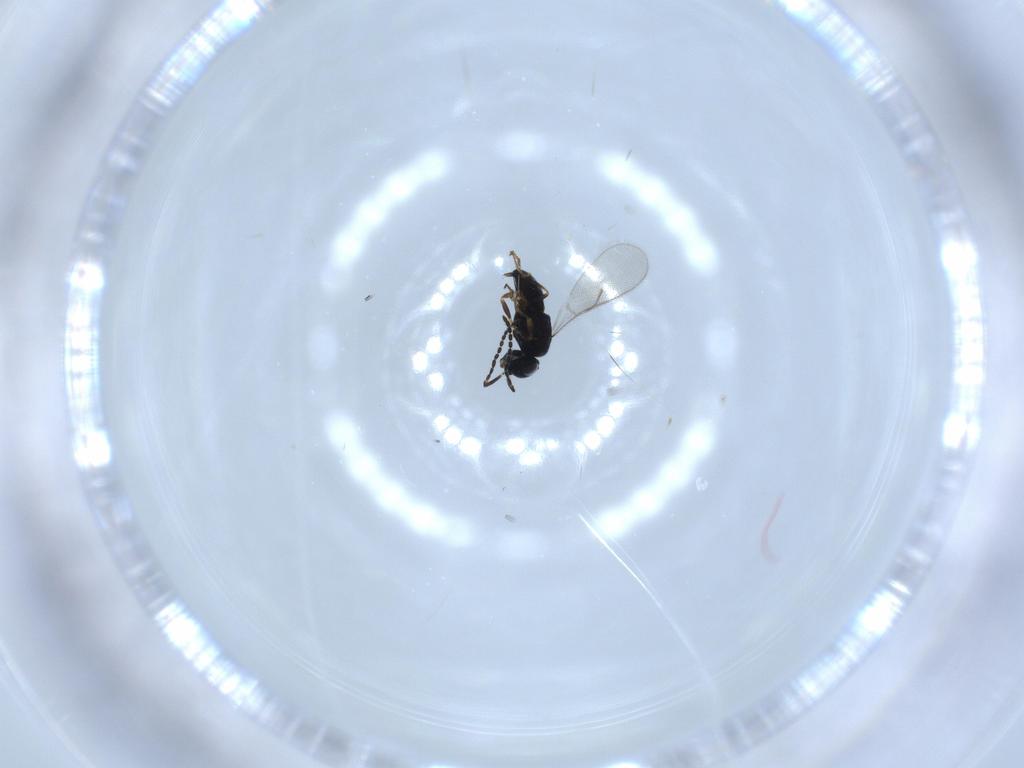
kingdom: Animalia
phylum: Arthropoda
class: Insecta
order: Hymenoptera
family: Scelionidae
